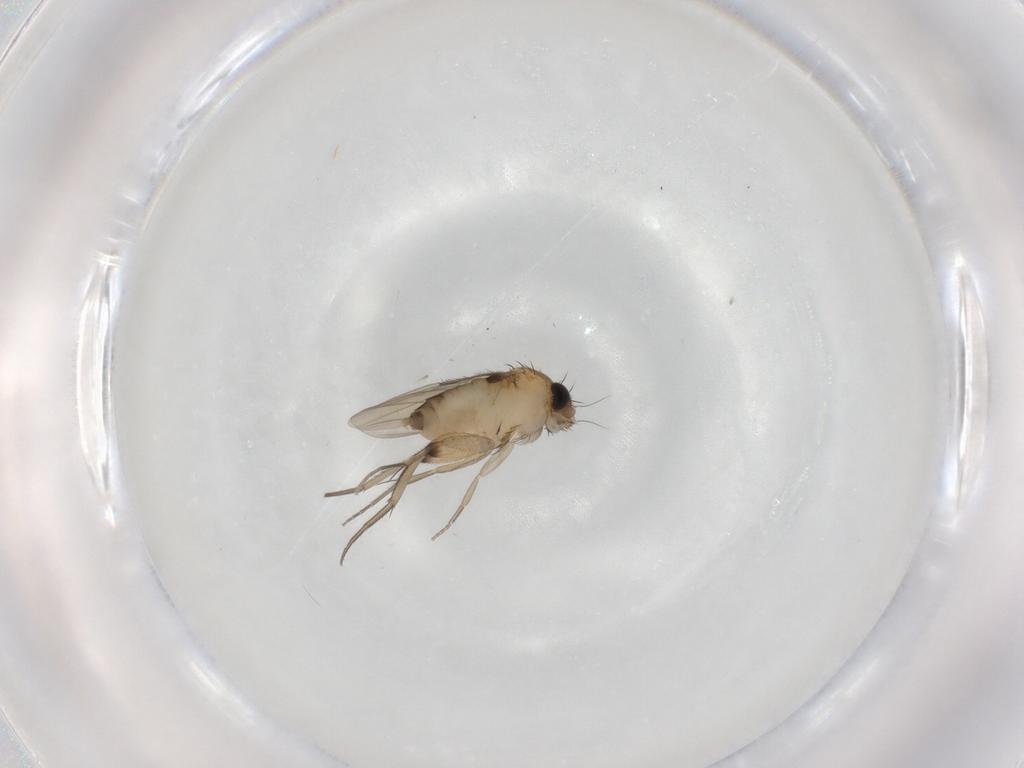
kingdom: Animalia
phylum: Arthropoda
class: Insecta
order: Diptera
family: Phoridae
